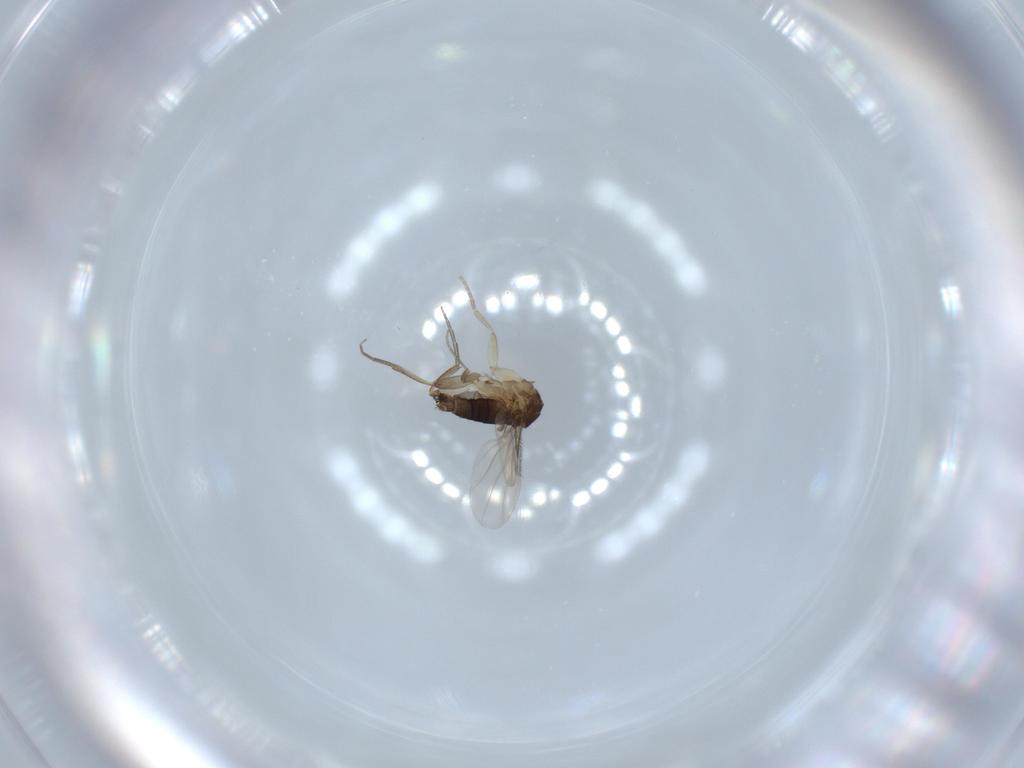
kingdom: Animalia
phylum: Arthropoda
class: Insecta
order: Diptera
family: Phoridae
